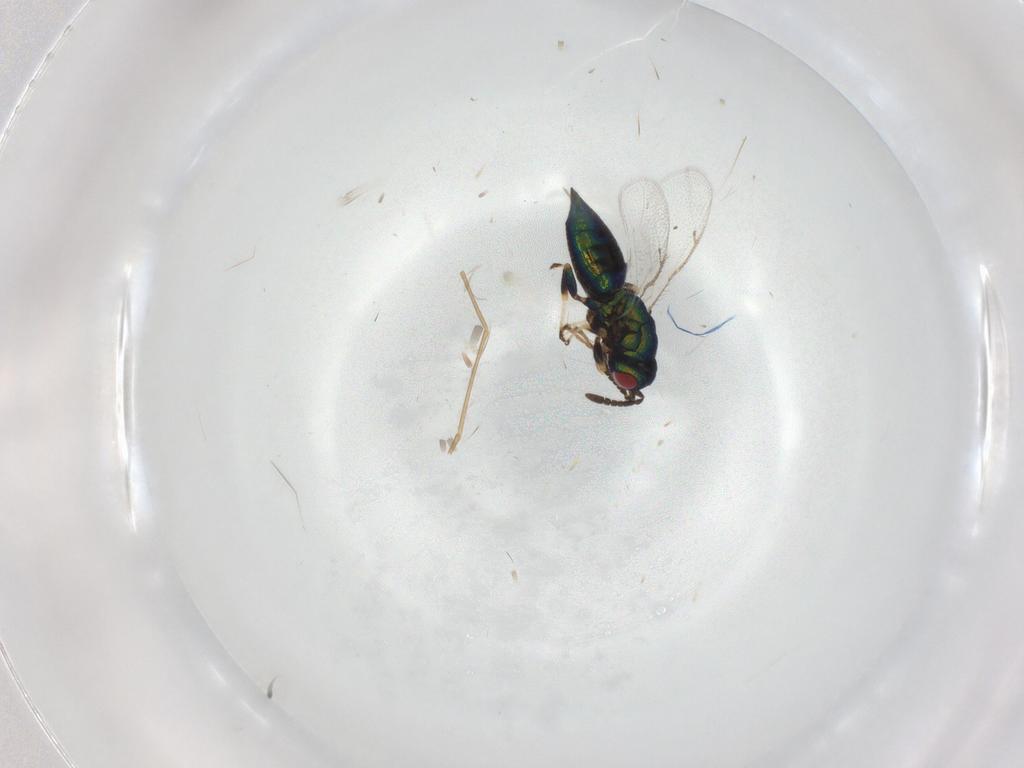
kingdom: Animalia
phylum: Arthropoda
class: Insecta
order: Hymenoptera
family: Pteromalidae
